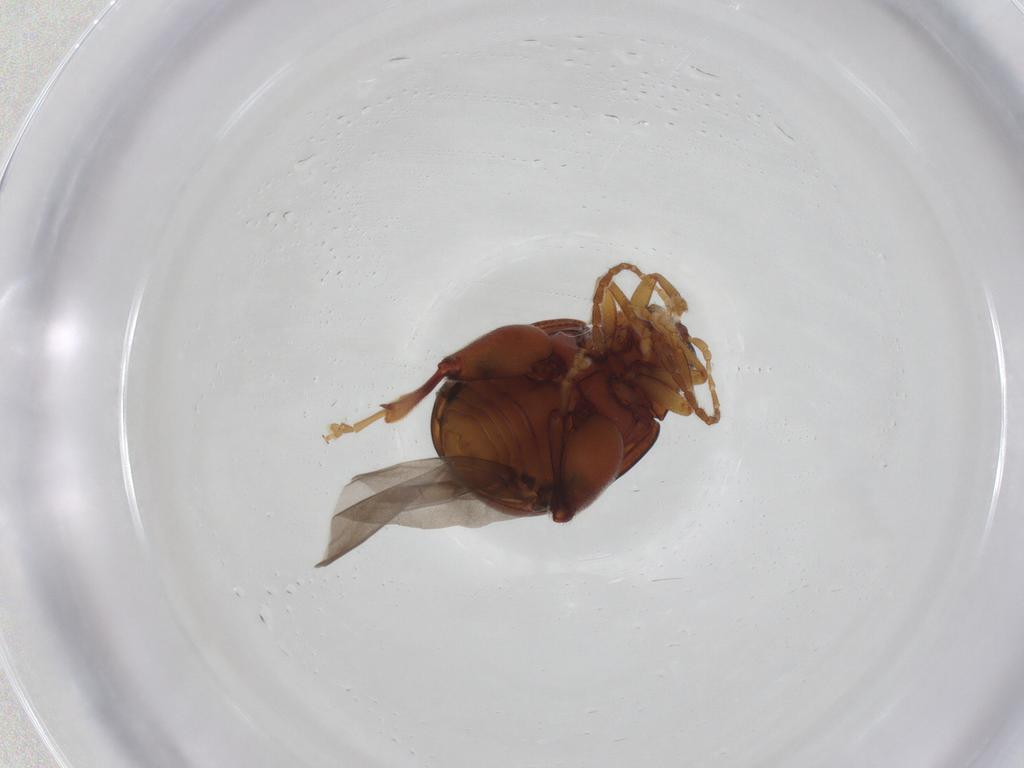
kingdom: Animalia
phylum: Arthropoda
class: Insecta
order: Coleoptera
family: Chrysomelidae
